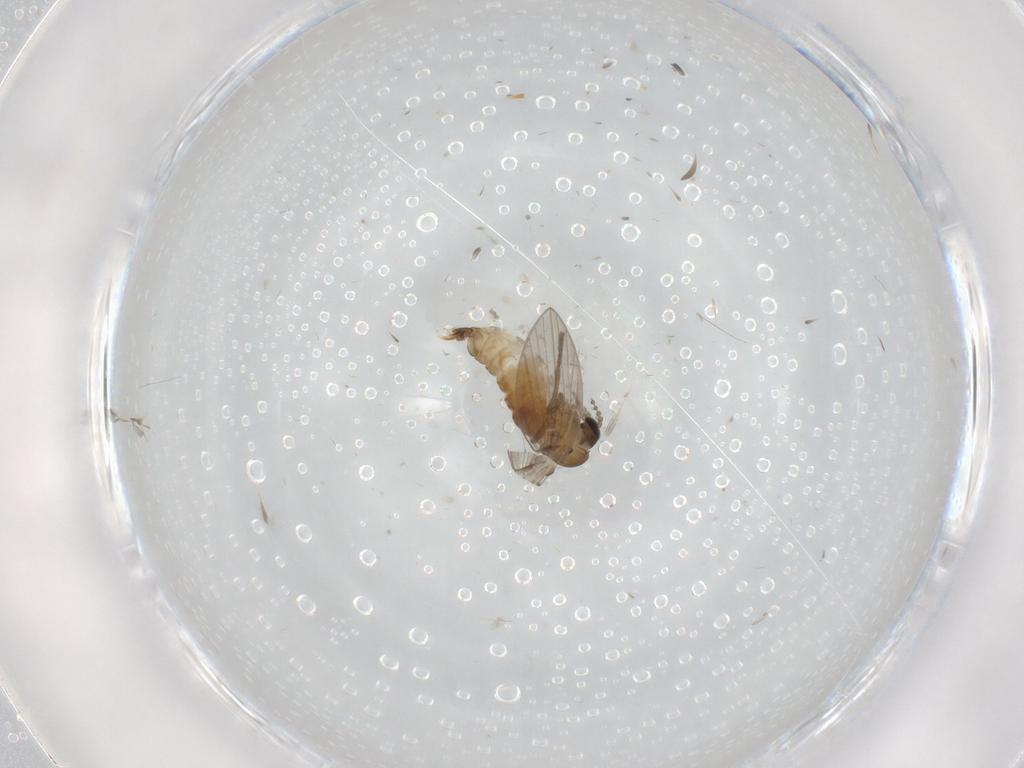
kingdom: Animalia
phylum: Arthropoda
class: Insecta
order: Diptera
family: Psychodidae
